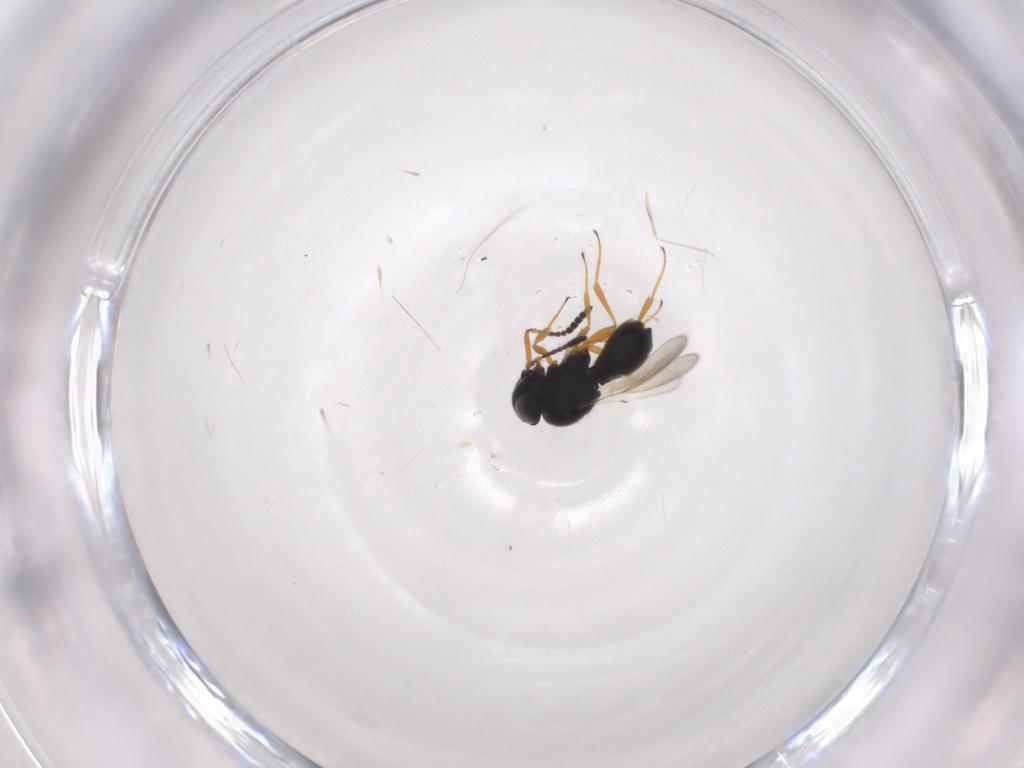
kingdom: Animalia
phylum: Arthropoda
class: Insecta
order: Hymenoptera
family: Scelionidae
